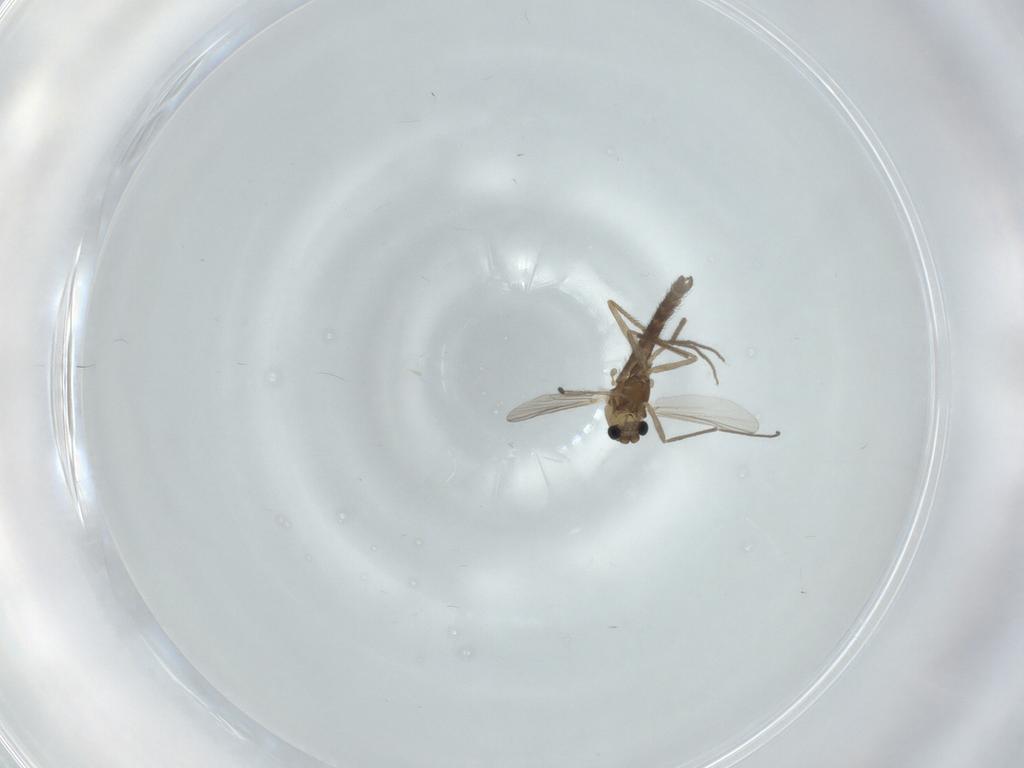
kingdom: Animalia
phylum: Arthropoda
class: Insecta
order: Diptera
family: Chironomidae
